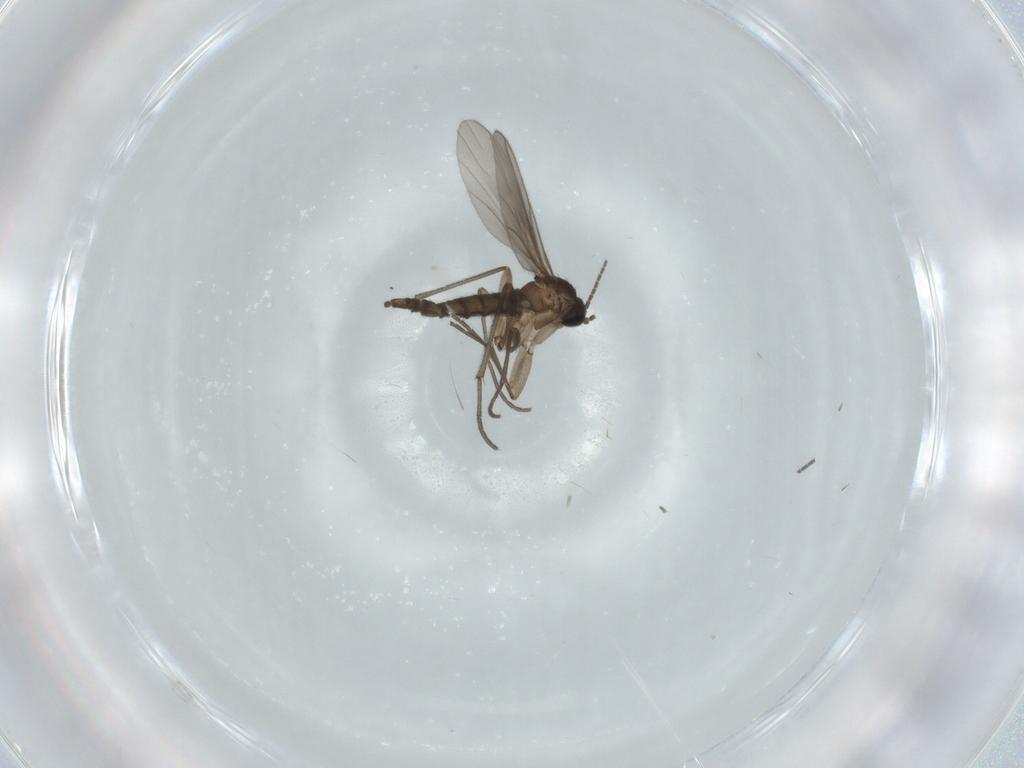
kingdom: Animalia
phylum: Arthropoda
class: Insecta
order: Diptera
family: Sciaridae
